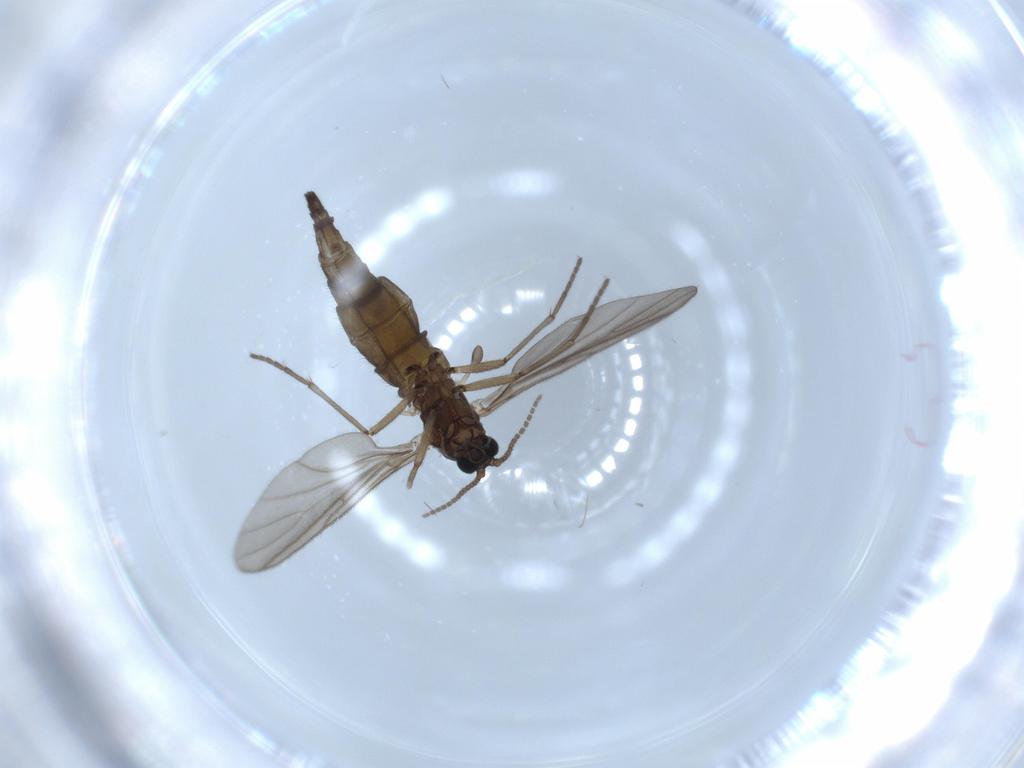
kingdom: Animalia
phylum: Arthropoda
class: Insecta
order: Diptera
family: Sciaridae
